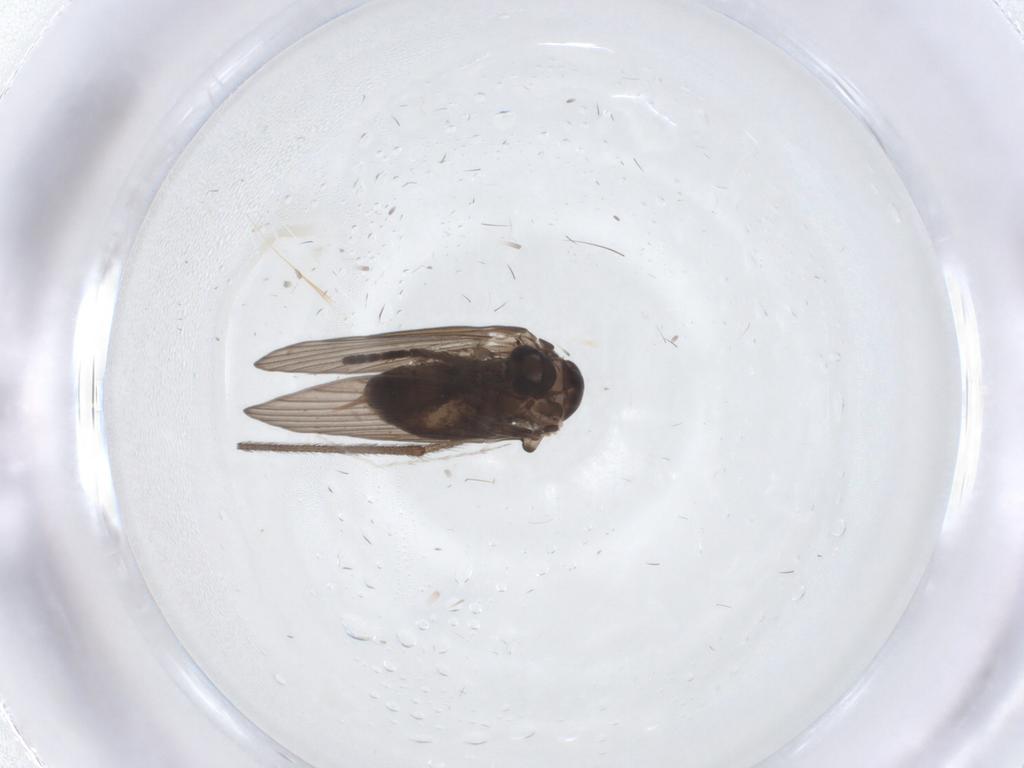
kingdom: Animalia
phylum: Arthropoda
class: Insecta
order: Diptera
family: Psychodidae
